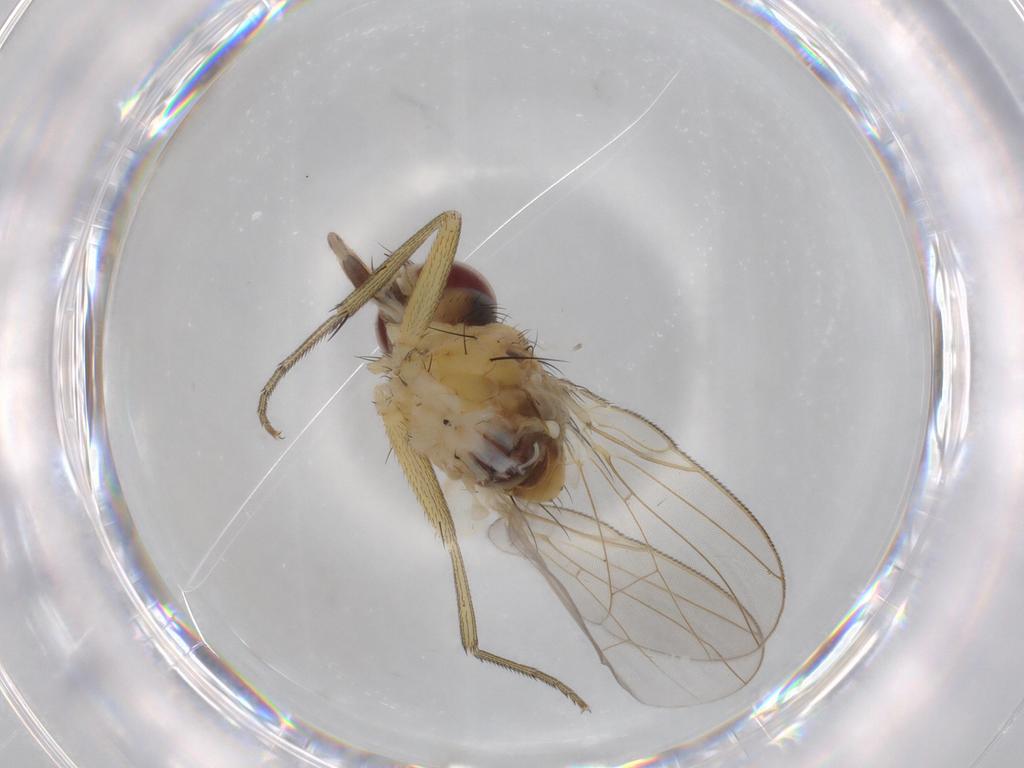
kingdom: Animalia
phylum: Arthropoda
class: Insecta
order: Diptera
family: Muscidae
